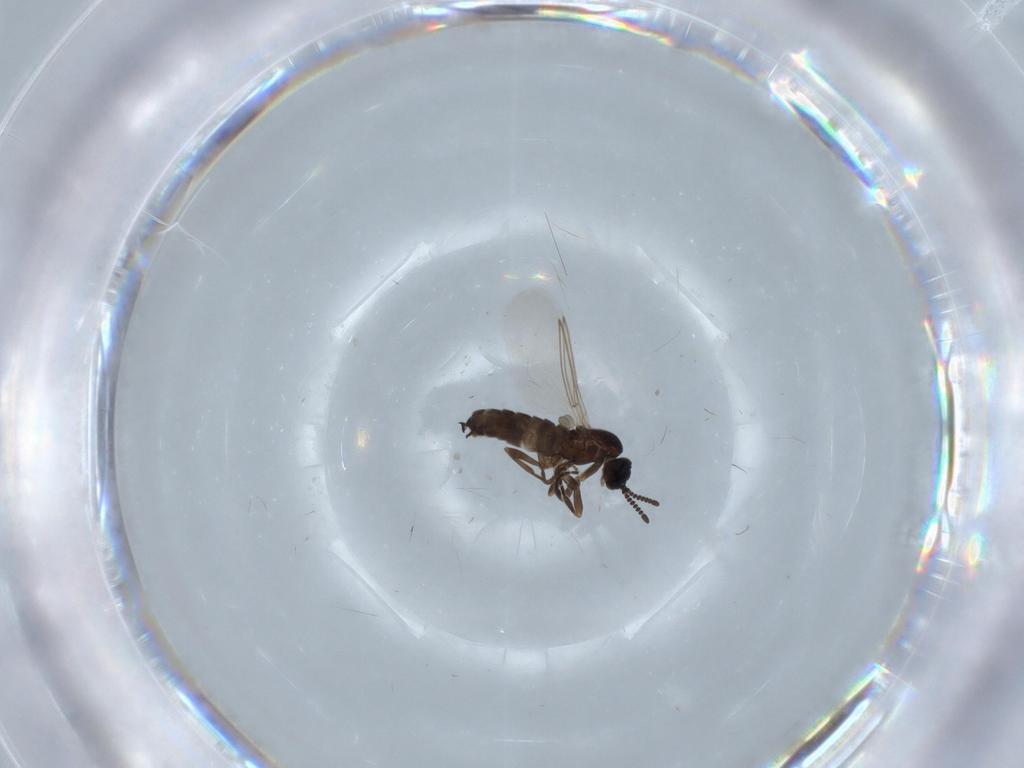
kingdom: Animalia
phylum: Arthropoda
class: Insecta
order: Diptera
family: Scatopsidae
